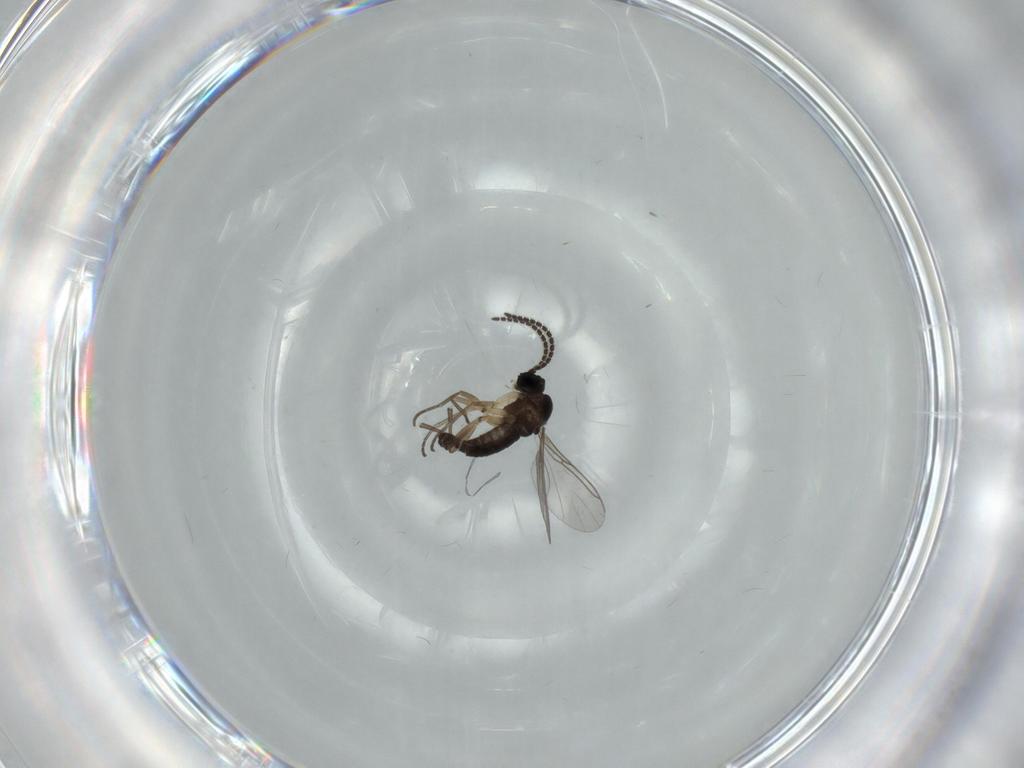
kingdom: Animalia
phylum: Arthropoda
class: Insecta
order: Diptera
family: Sciaridae
